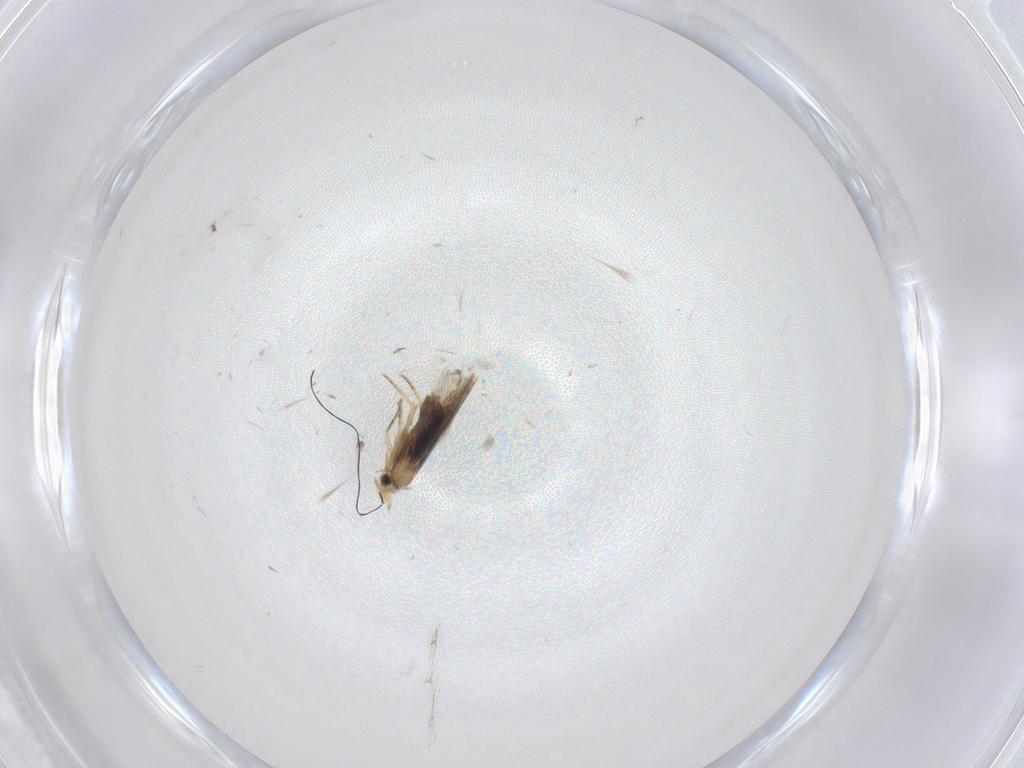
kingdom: Animalia
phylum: Arthropoda
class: Insecta
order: Lepidoptera
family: Nepticulidae
